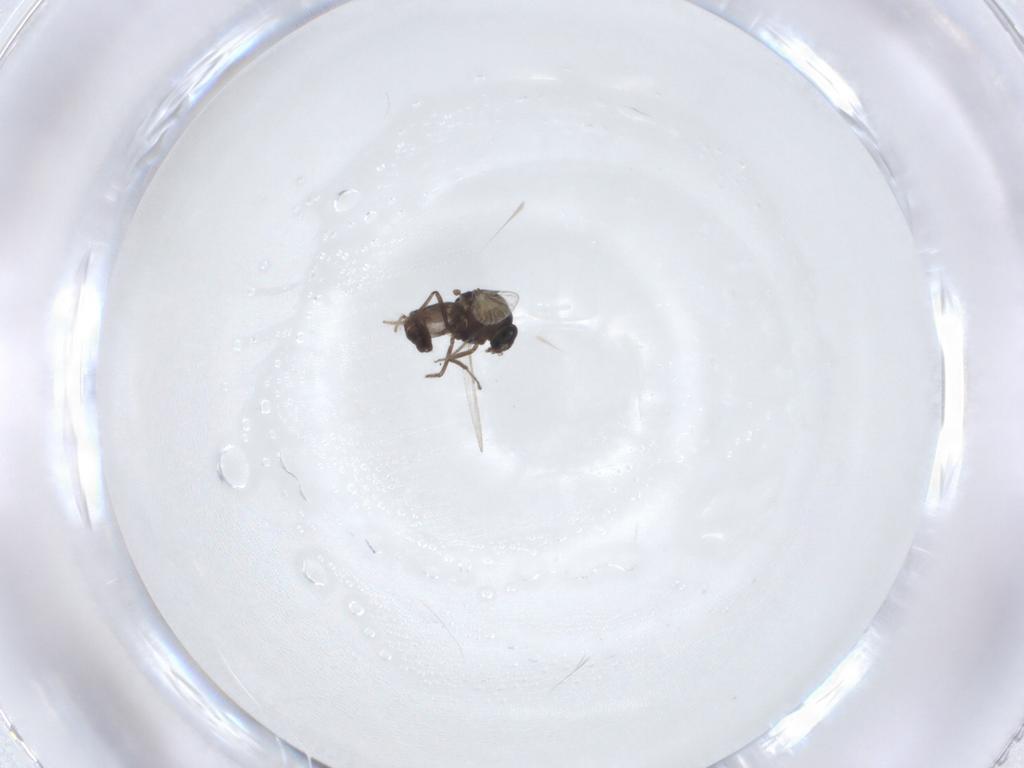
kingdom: Animalia
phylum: Arthropoda
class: Insecta
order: Diptera
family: Ceratopogonidae
